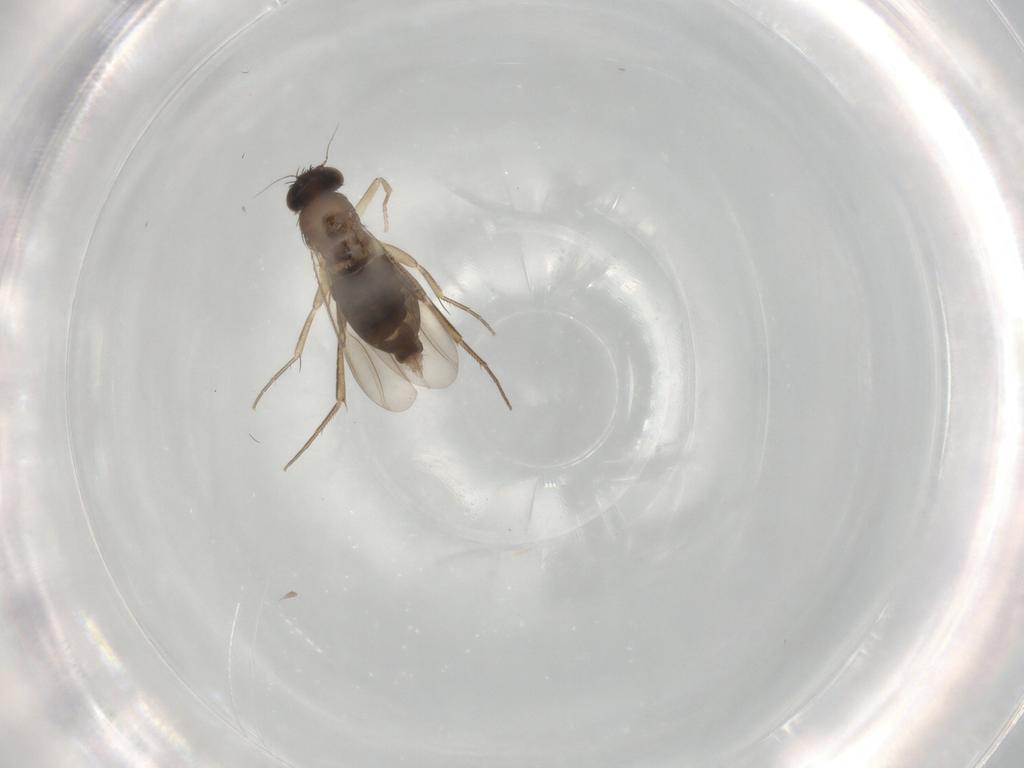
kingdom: Animalia
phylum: Arthropoda
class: Insecta
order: Diptera
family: Phoridae
